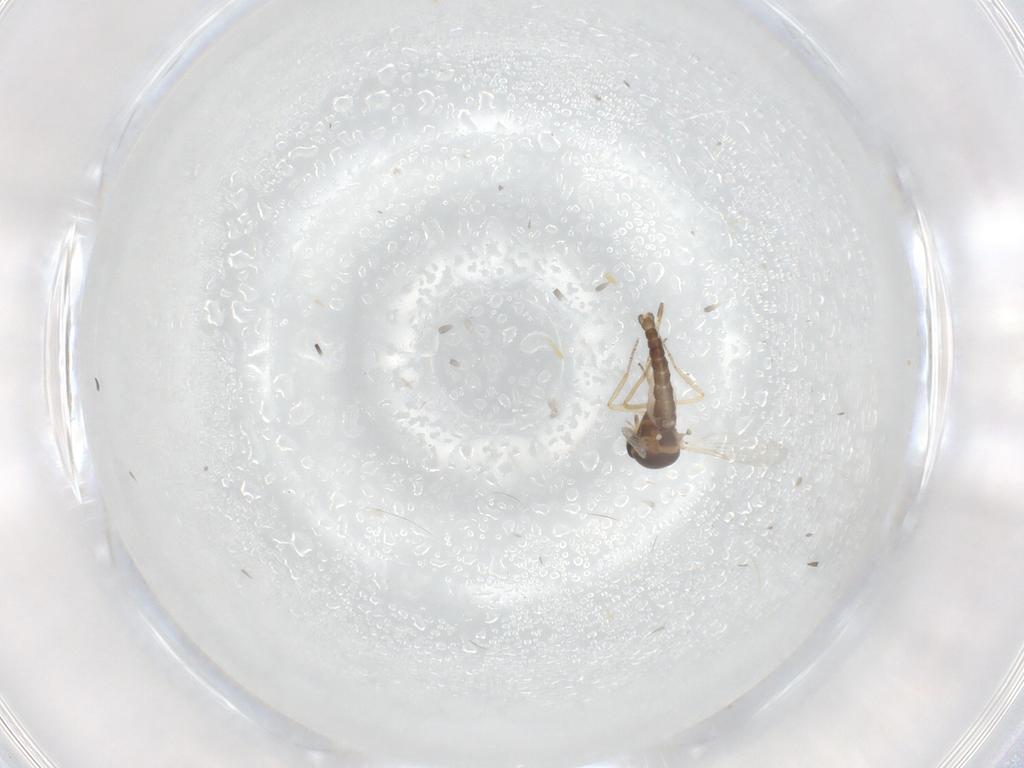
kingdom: Animalia
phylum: Arthropoda
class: Insecta
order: Diptera
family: Ceratopogonidae
